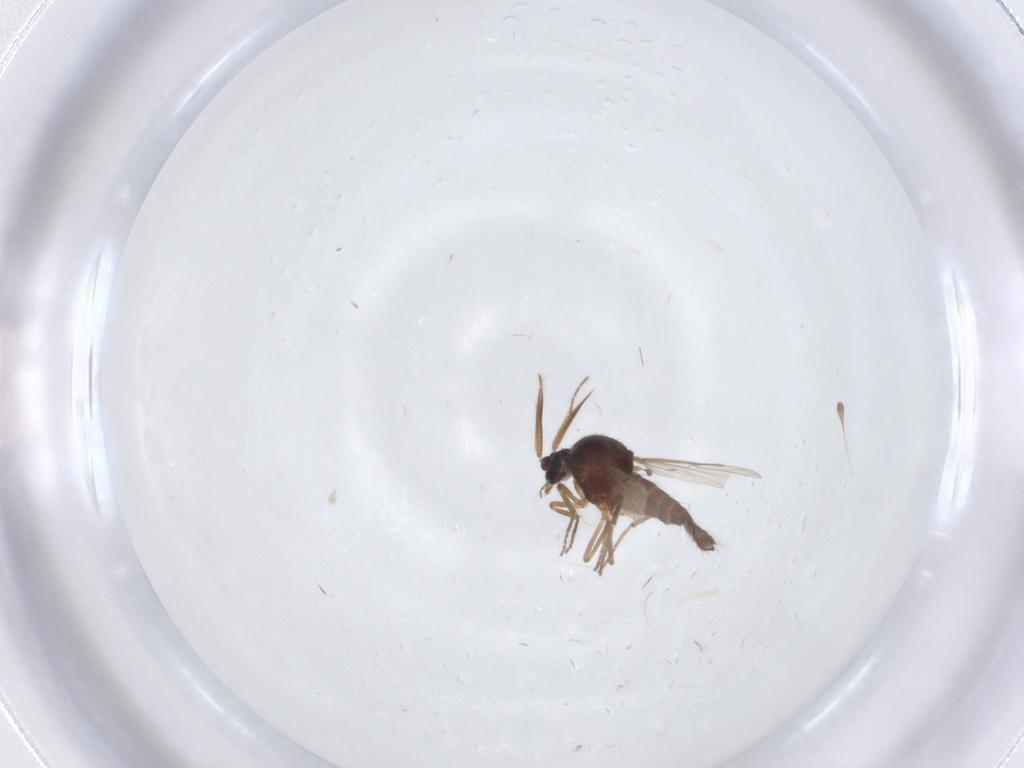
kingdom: Animalia
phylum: Arthropoda
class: Insecta
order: Diptera
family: Ceratopogonidae
